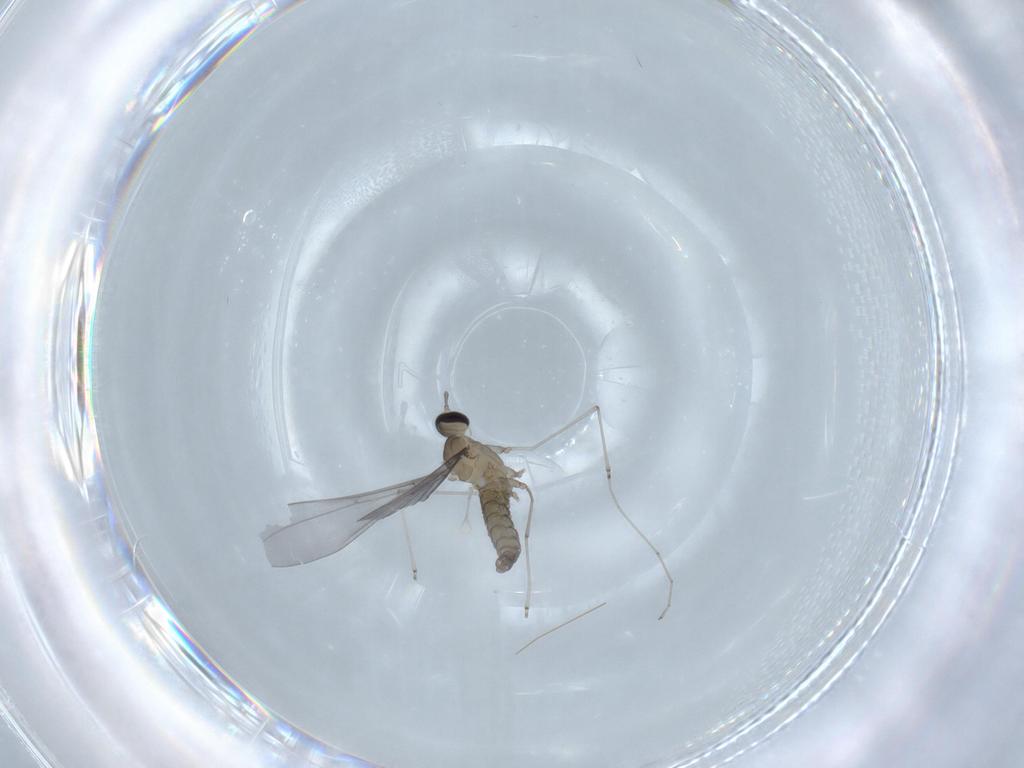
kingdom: Animalia
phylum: Arthropoda
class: Insecta
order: Diptera
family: Cecidomyiidae
